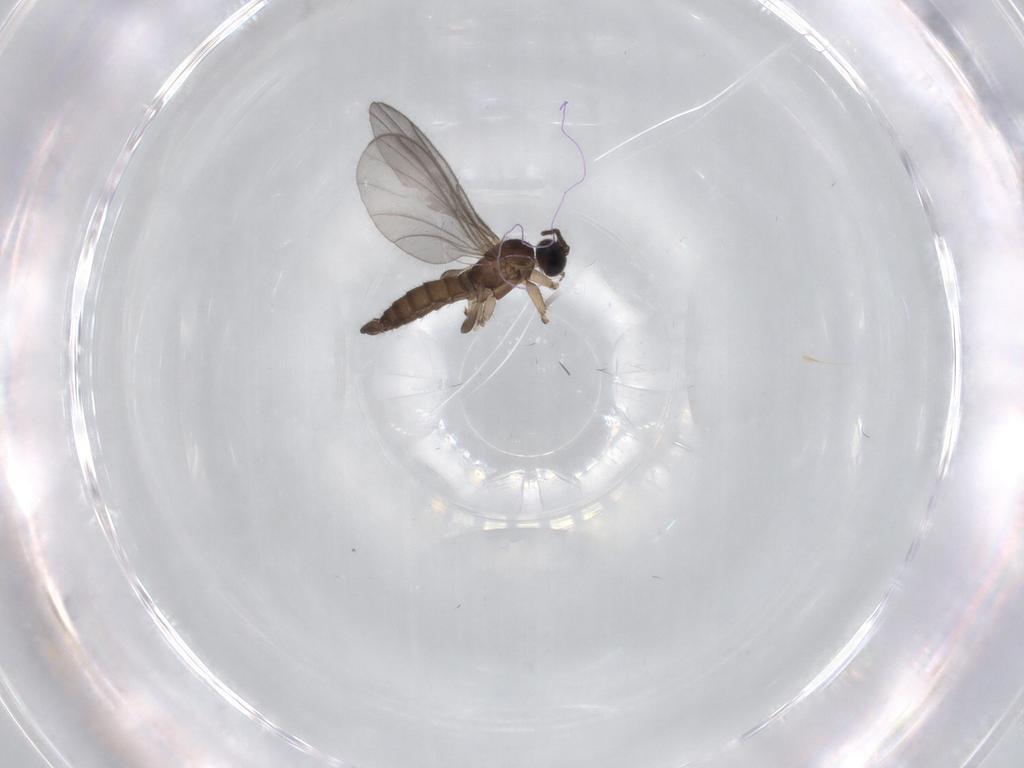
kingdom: Animalia
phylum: Arthropoda
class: Insecta
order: Diptera
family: Sciaridae
